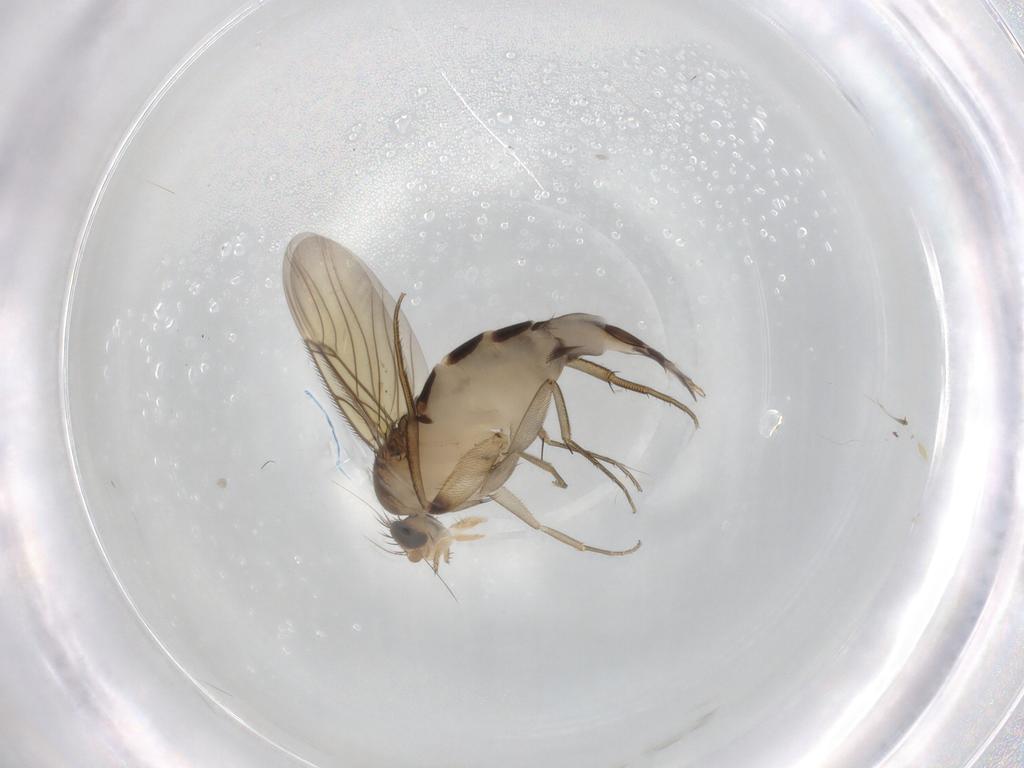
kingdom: Animalia
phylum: Arthropoda
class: Insecta
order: Diptera
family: Phoridae
